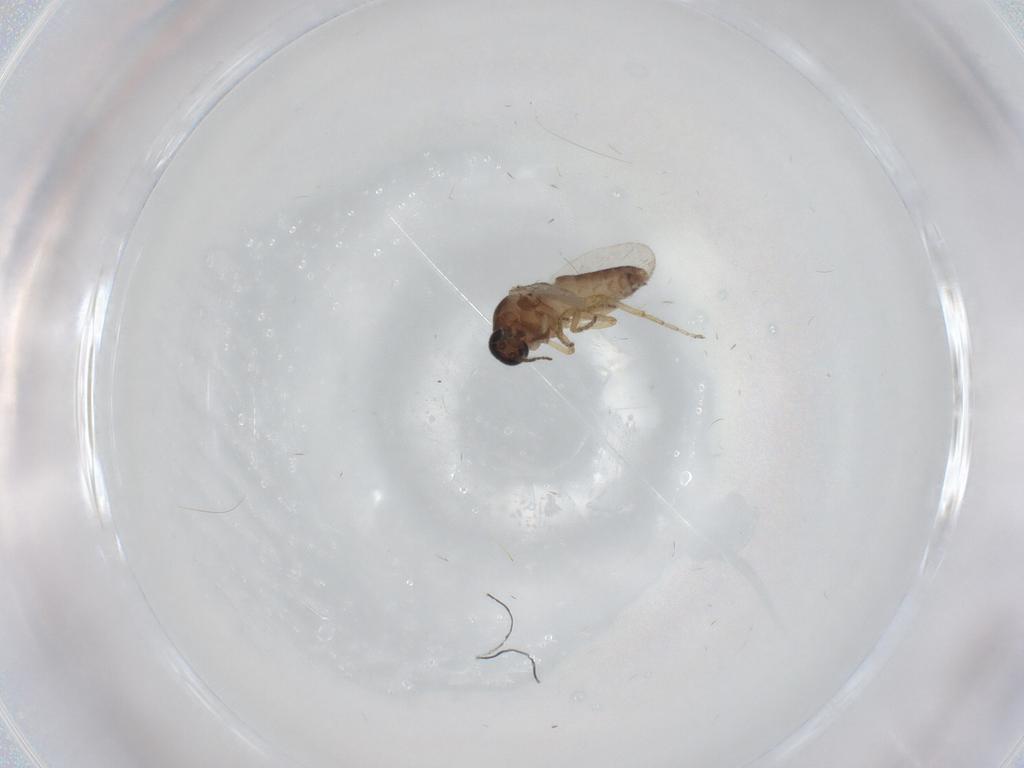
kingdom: Animalia
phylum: Arthropoda
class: Insecta
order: Diptera
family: Ceratopogonidae
